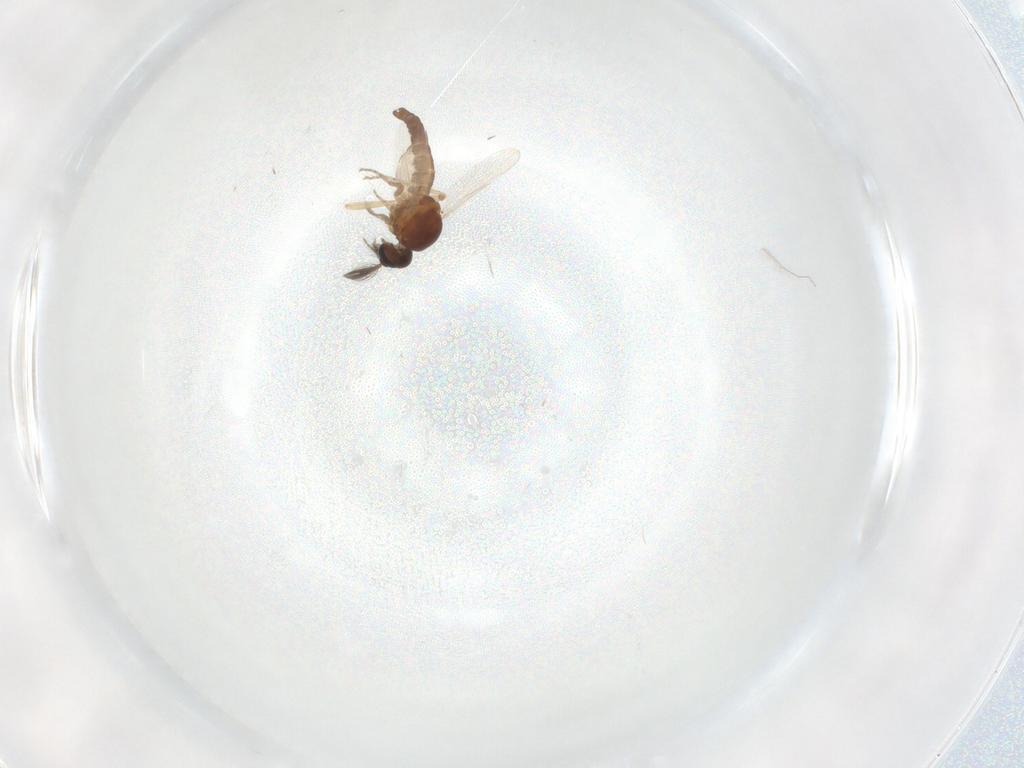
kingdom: Animalia
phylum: Arthropoda
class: Insecta
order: Diptera
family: Ceratopogonidae
